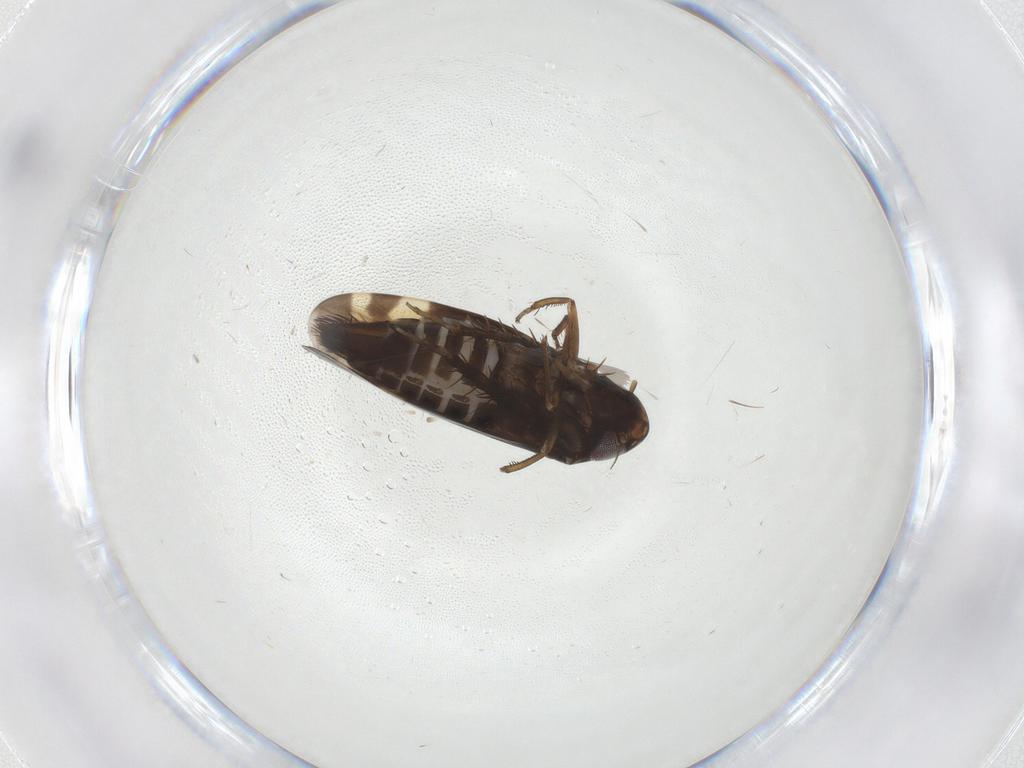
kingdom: Animalia
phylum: Arthropoda
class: Insecta
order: Hemiptera
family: Cicadellidae
